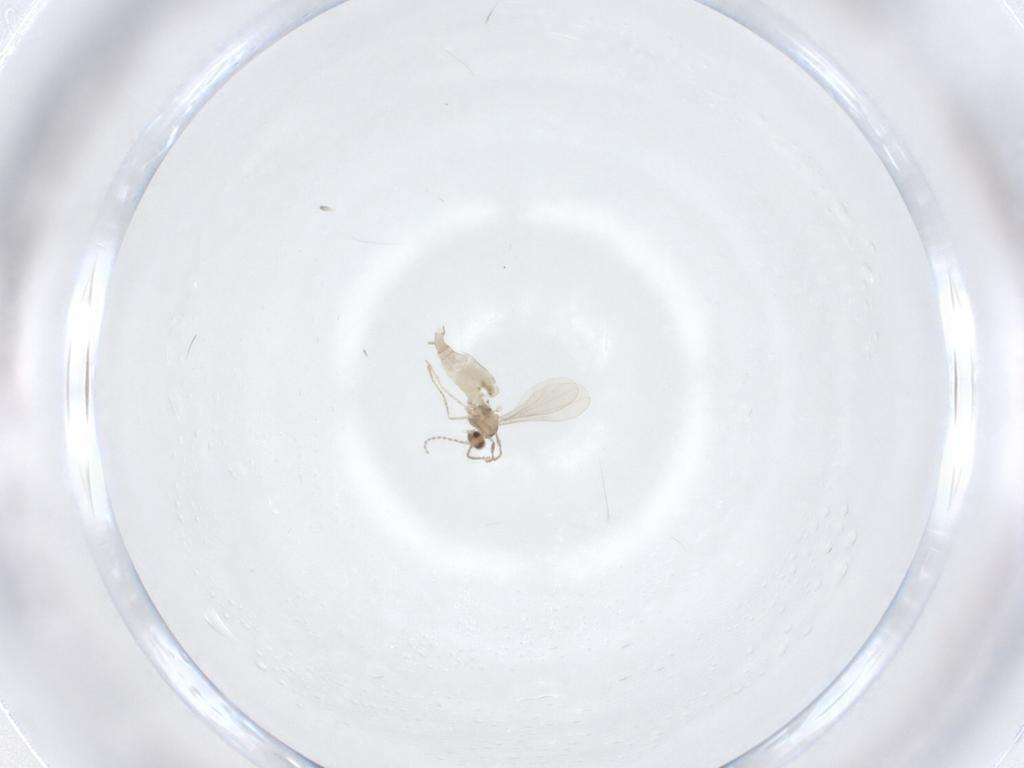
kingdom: Animalia
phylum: Arthropoda
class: Insecta
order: Diptera
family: Cecidomyiidae
